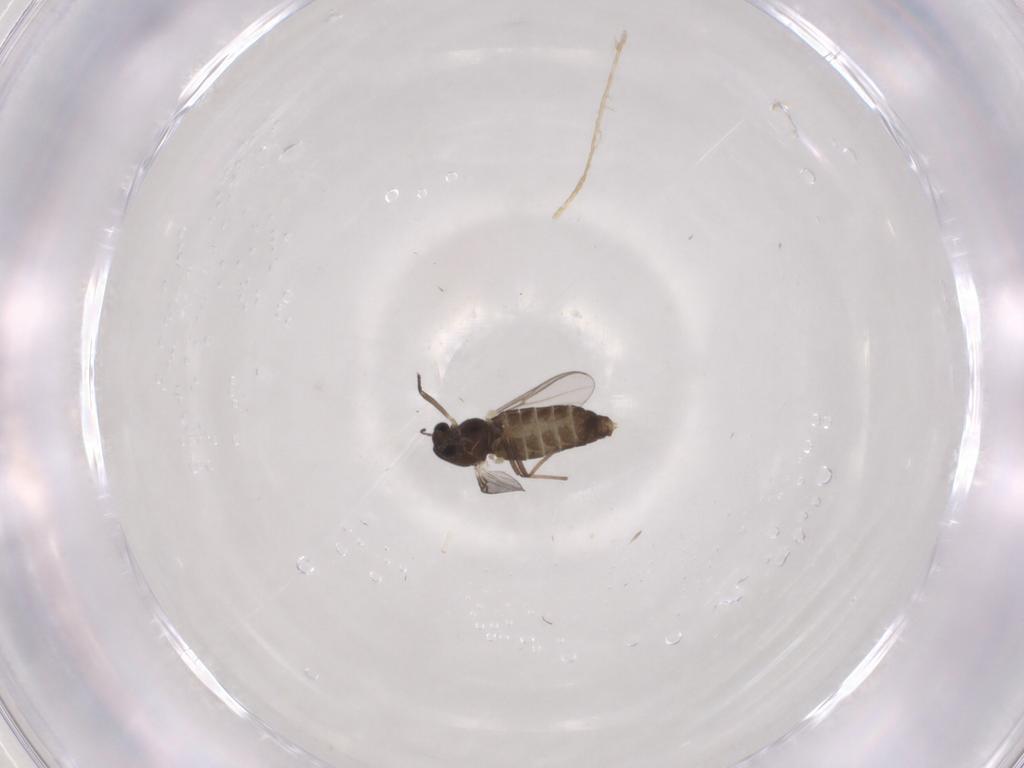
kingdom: Animalia
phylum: Arthropoda
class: Insecta
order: Diptera
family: Chironomidae
